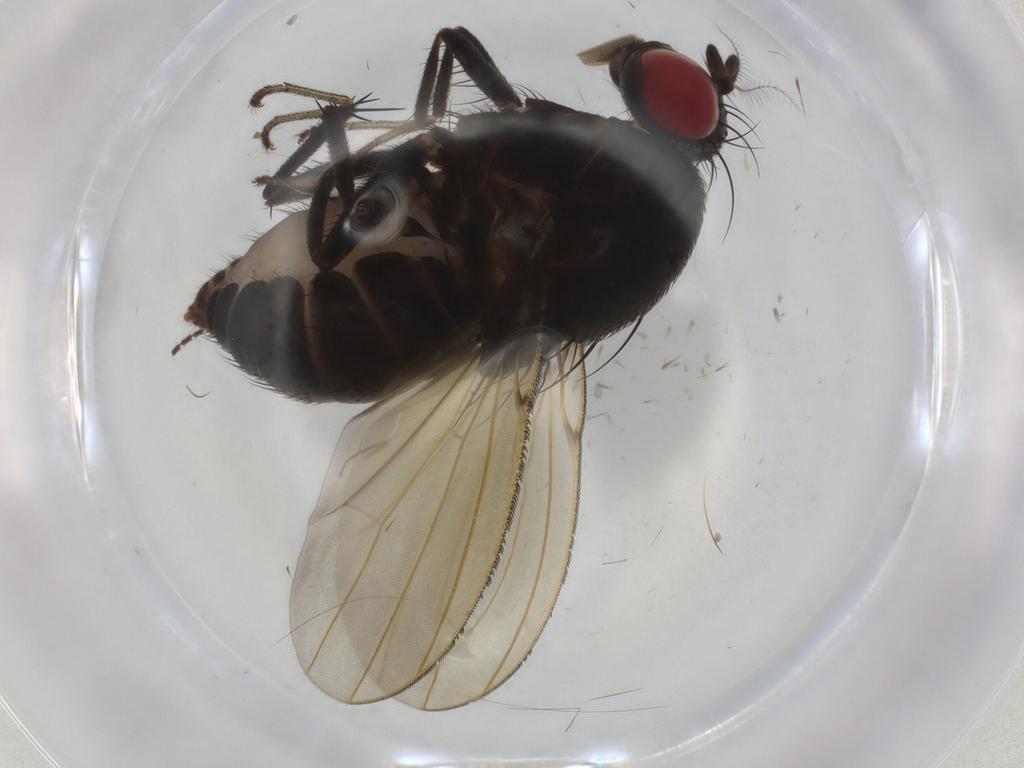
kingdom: Animalia
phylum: Arthropoda
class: Insecta
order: Diptera
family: Lauxaniidae
